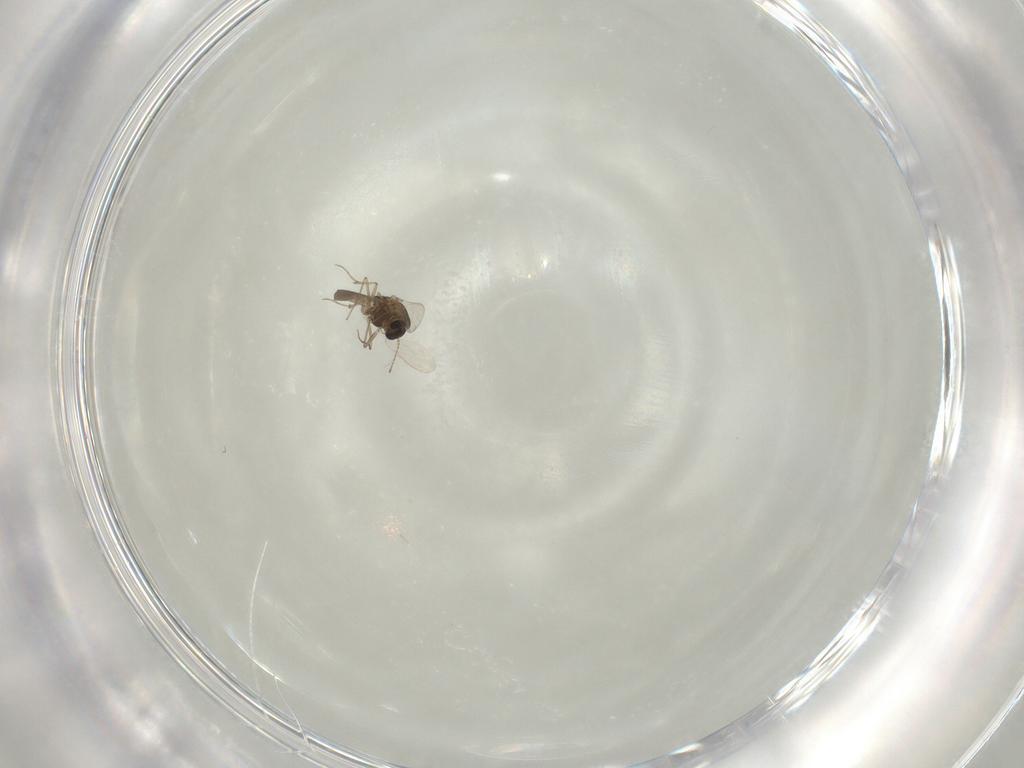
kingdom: Animalia
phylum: Arthropoda
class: Insecta
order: Diptera
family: Chironomidae
